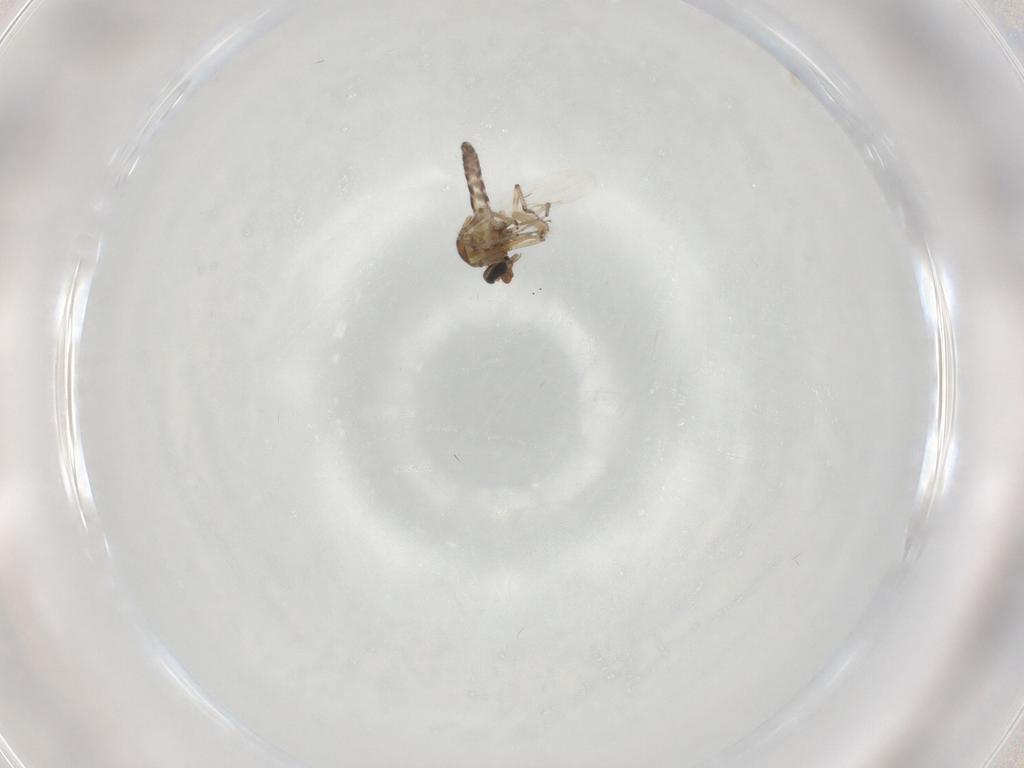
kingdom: Animalia
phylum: Arthropoda
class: Insecta
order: Diptera
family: Ceratopogonidae
